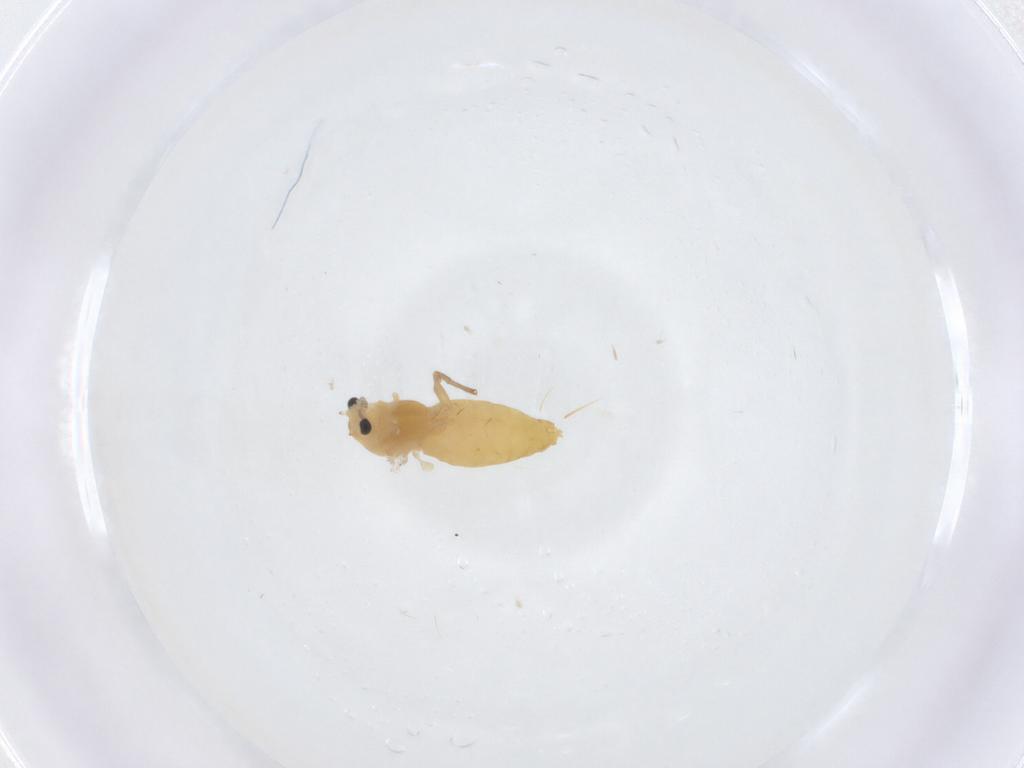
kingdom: Animalia
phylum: Arthropoda
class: Insecta
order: Diptera
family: Chironomidae
